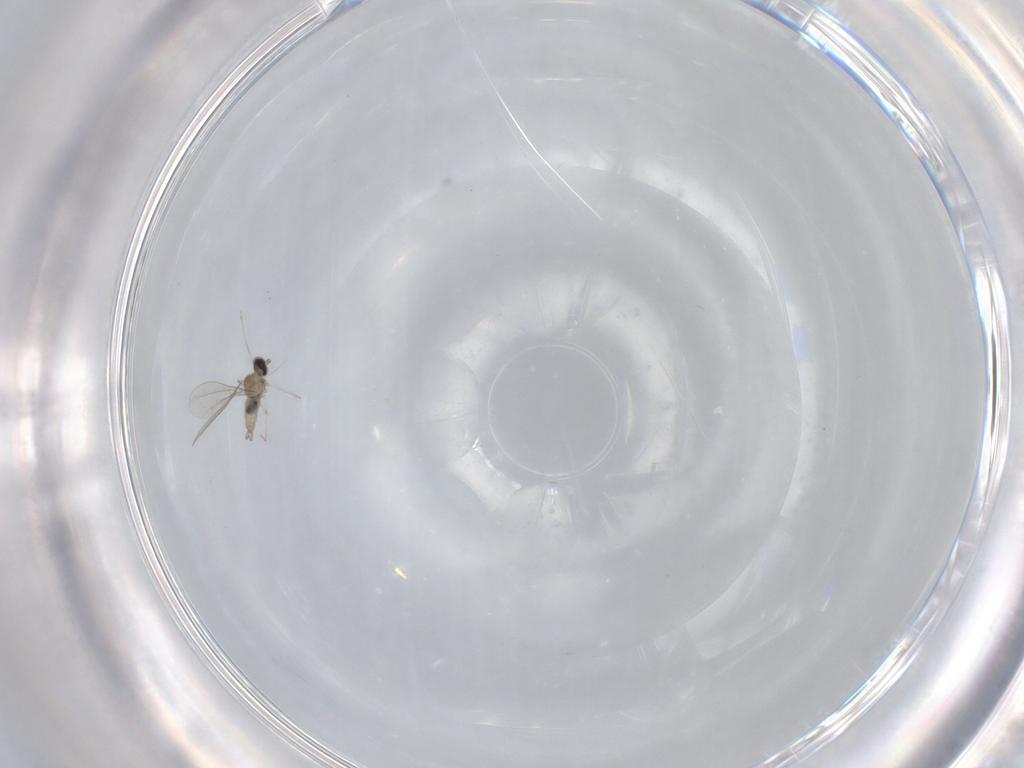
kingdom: Animalia
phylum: Arthropoda
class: Insecta
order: Diptera
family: Cecidomyiidae
